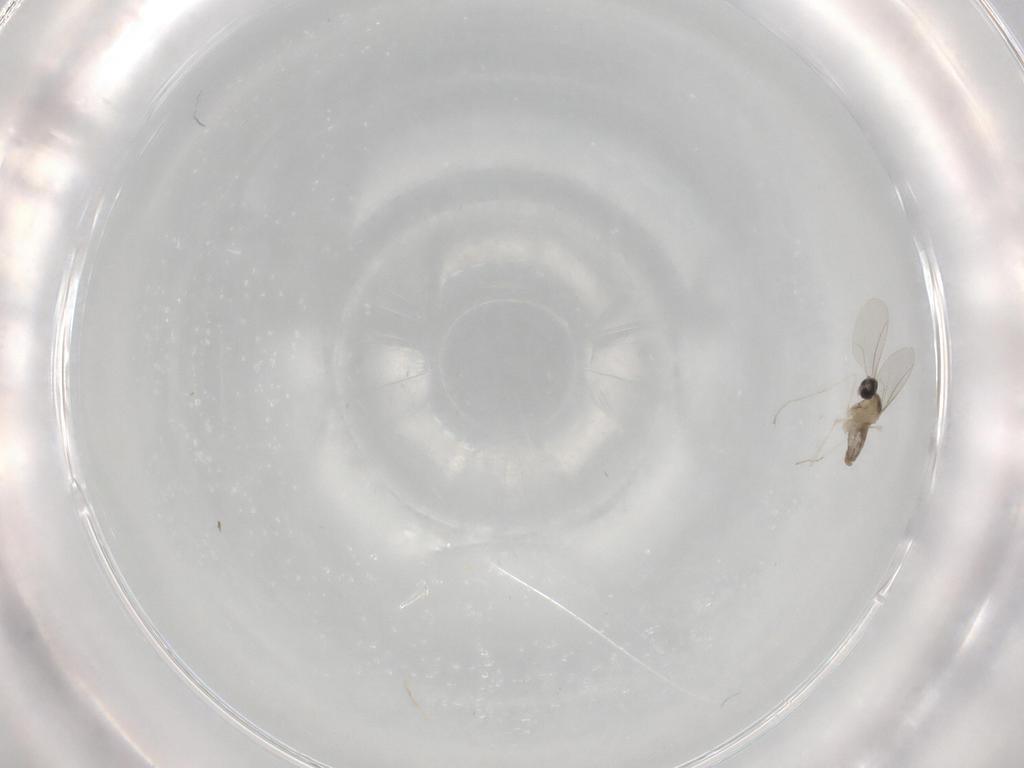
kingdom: Animalia
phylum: Arthropoda
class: Insecta
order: Diptera
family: Cecidomyiidae
